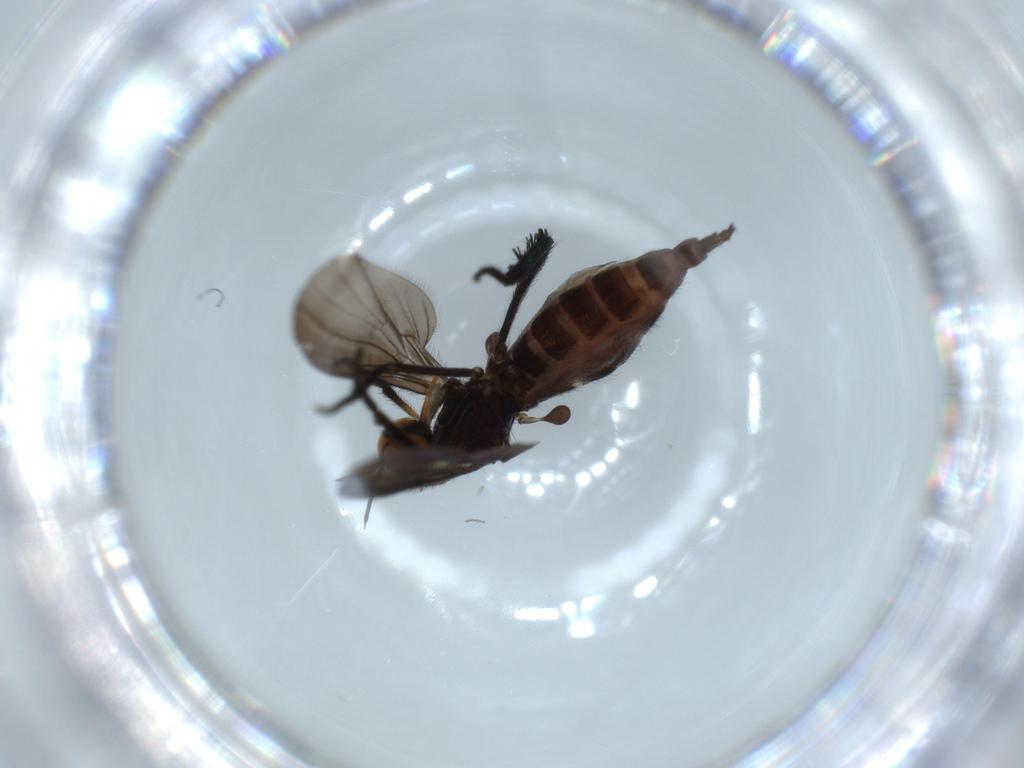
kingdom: Animalia
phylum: Arthropoda
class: Insecta
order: Diptera
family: Empididae
